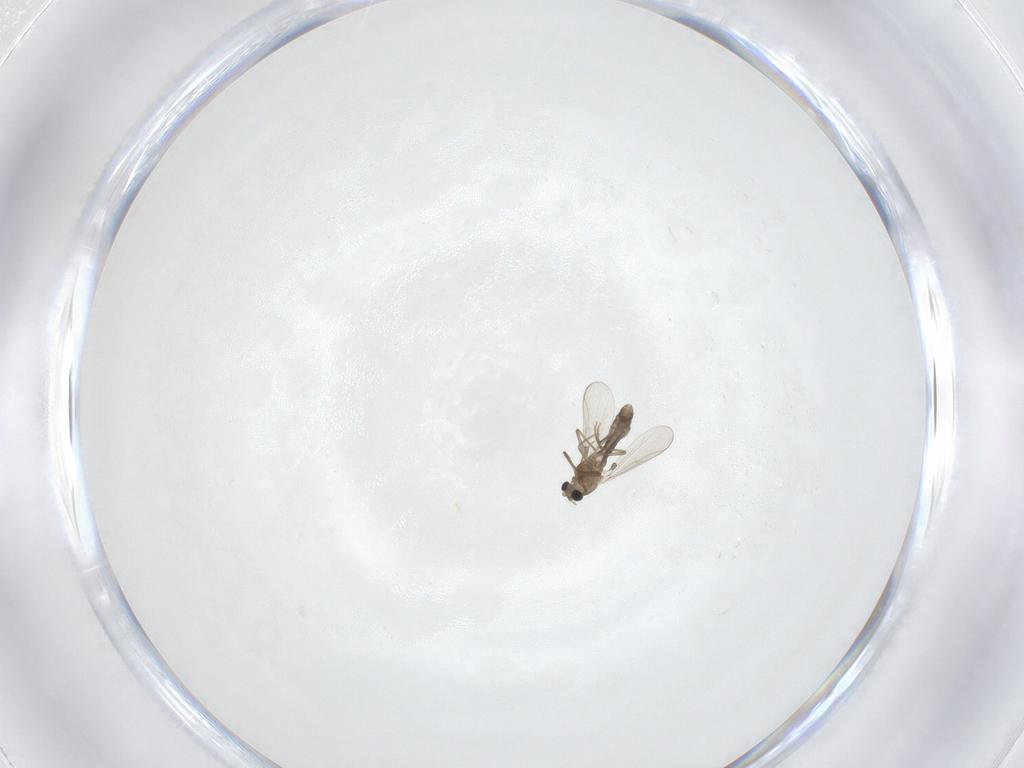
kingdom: Animalia
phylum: Arthropoda
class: Insecta
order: Diptera
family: Chironomidae
